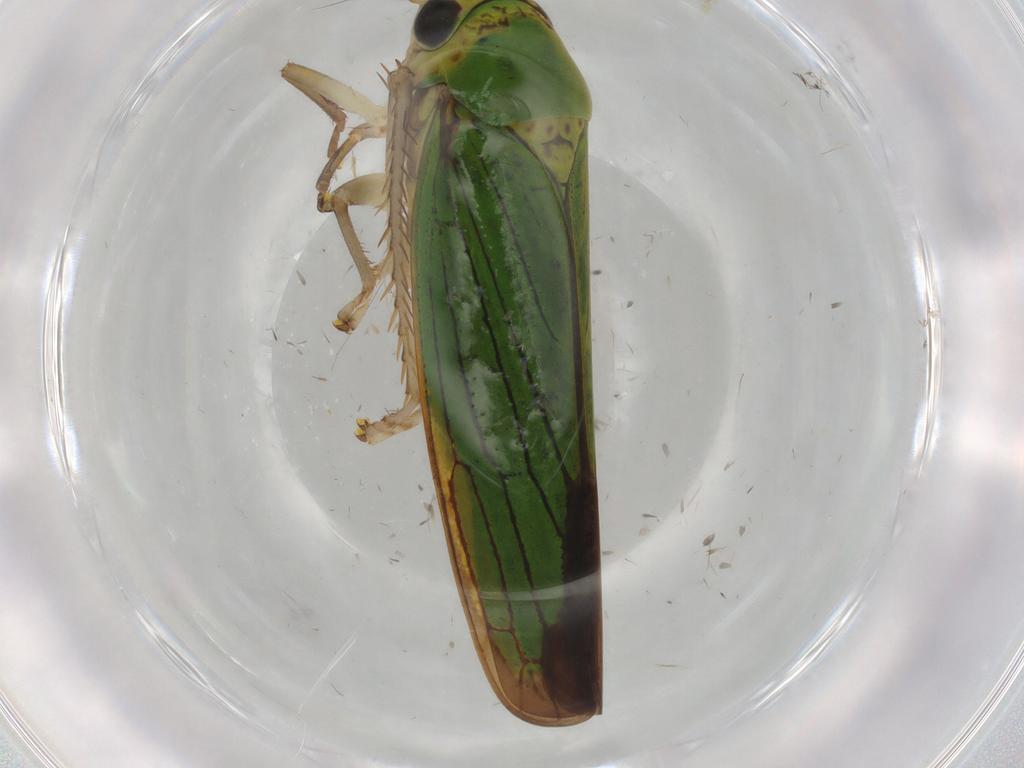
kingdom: Animalia
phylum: Arthropoda
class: Insecta
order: Hemiptera
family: Cicadellidae
